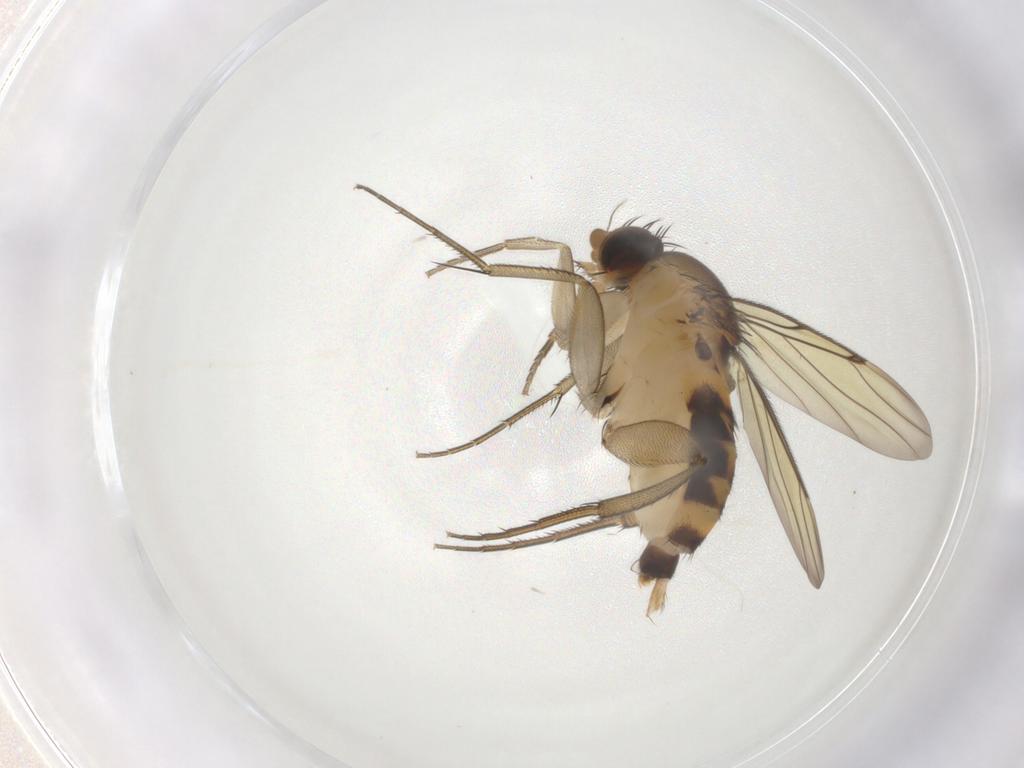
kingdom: Animalia
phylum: Arthropoda
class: Insecta
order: Diptera
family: Phoridae
